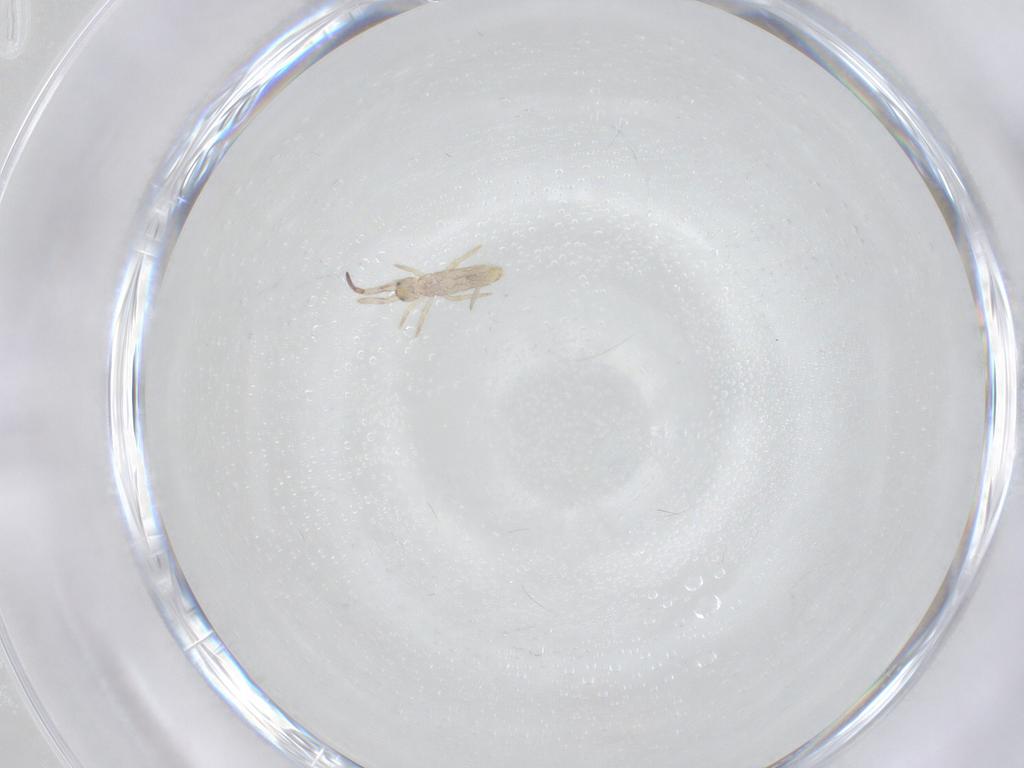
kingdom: Animalia
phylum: Arthropoda
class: Collembola
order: Entomobryomorpha
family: Entomobryidae
